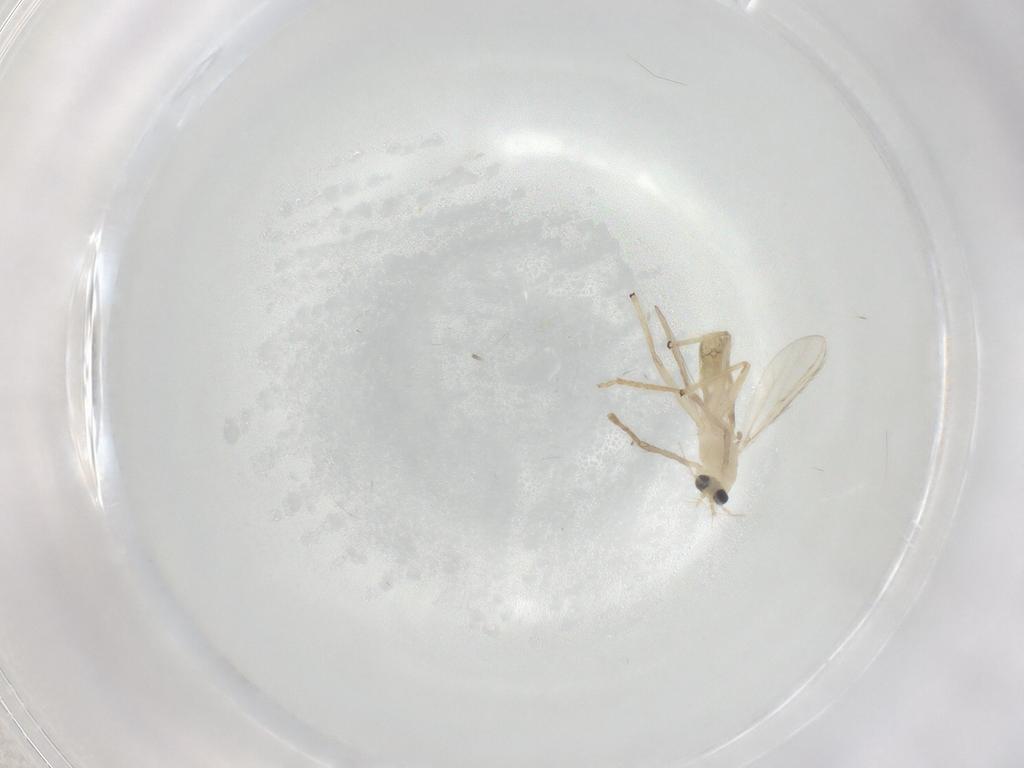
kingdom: Animalia
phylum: Arthropoda
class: Insecta
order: Diptera
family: Chironomidae
